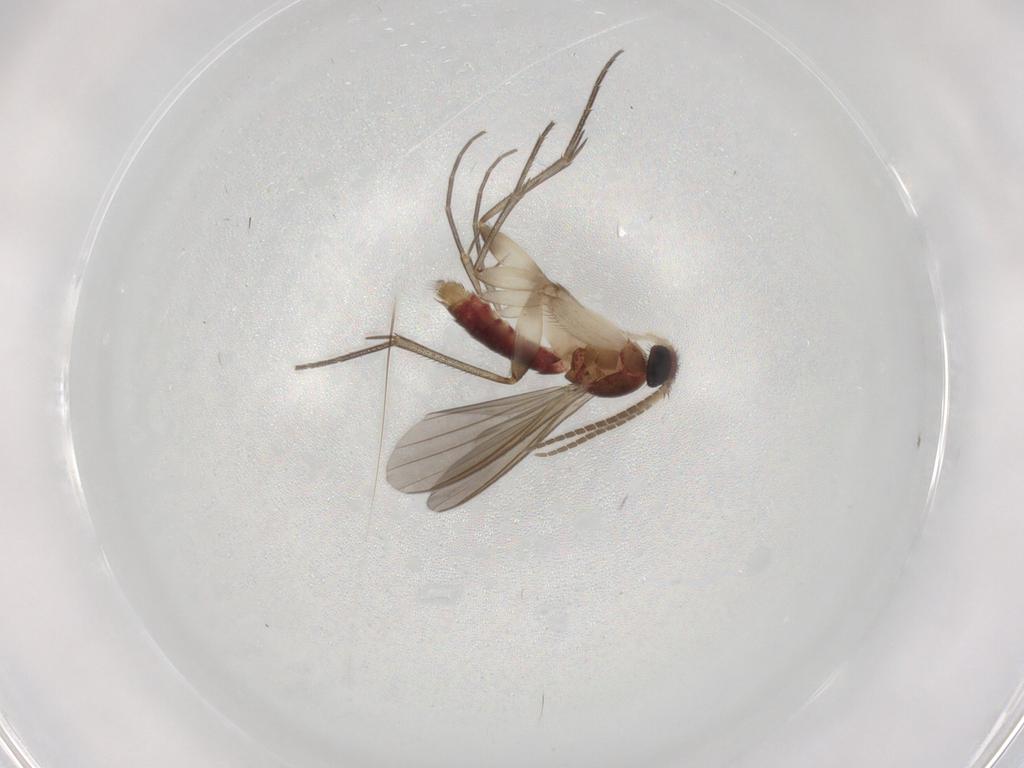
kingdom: Animalia
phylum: Arthropoda
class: Insecta
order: Diptera
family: Mycetophilidae
